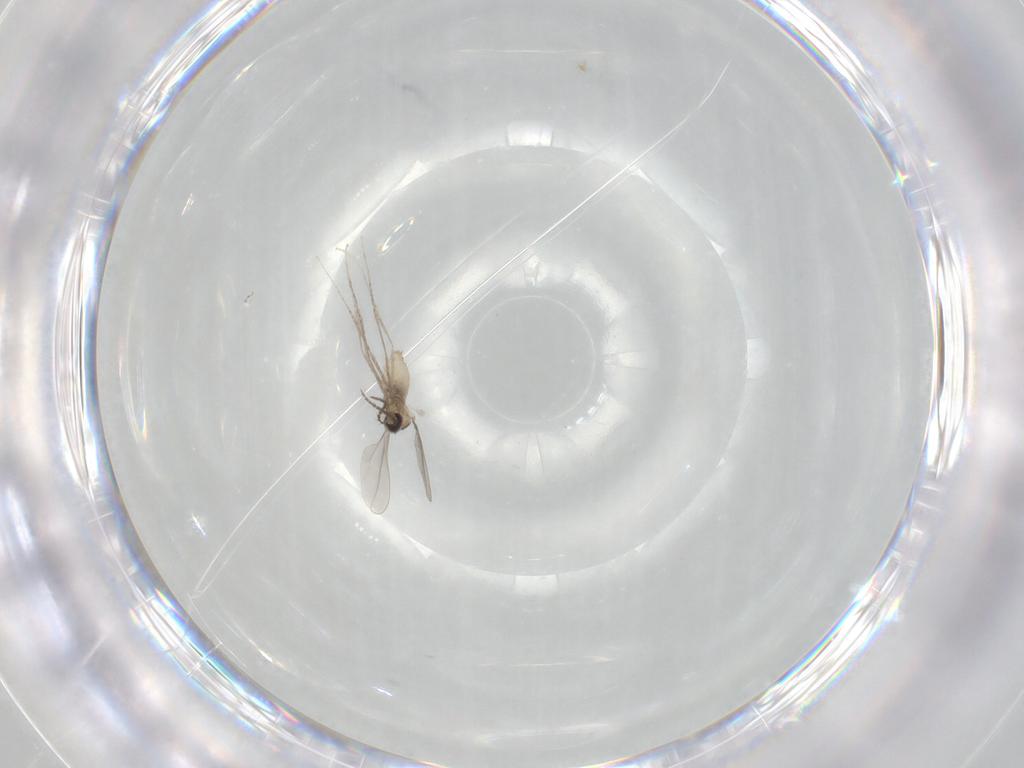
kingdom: Animalia
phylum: Arthropoda
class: Insecta
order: Diptera
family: Cecidomyiidae
